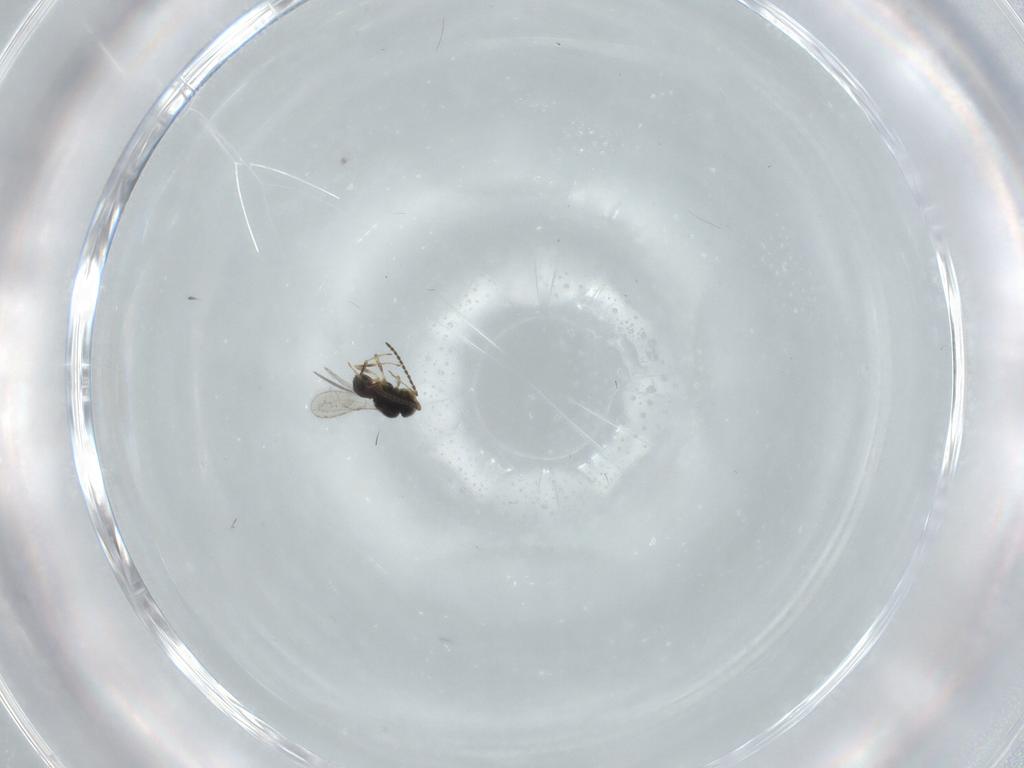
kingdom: Animalia
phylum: Arthropoda
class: Insecta
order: Hymenoptera
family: Scelionidae
